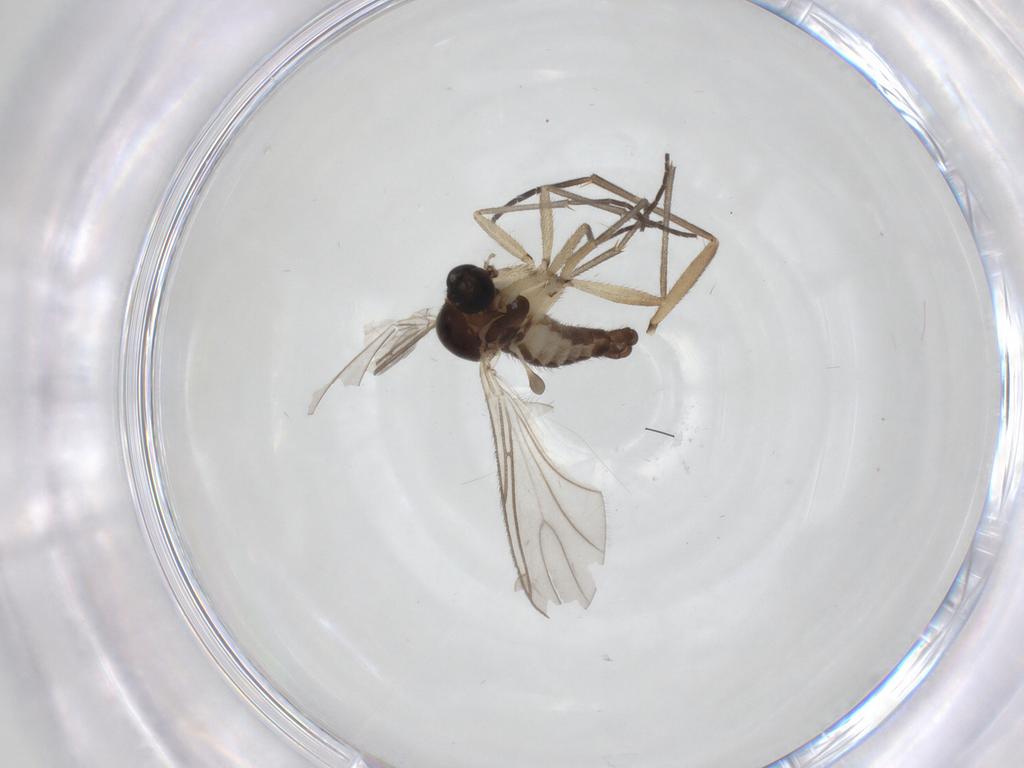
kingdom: Animalia
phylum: Arthropoda
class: Insecta
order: Diptera
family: Sciaridae
